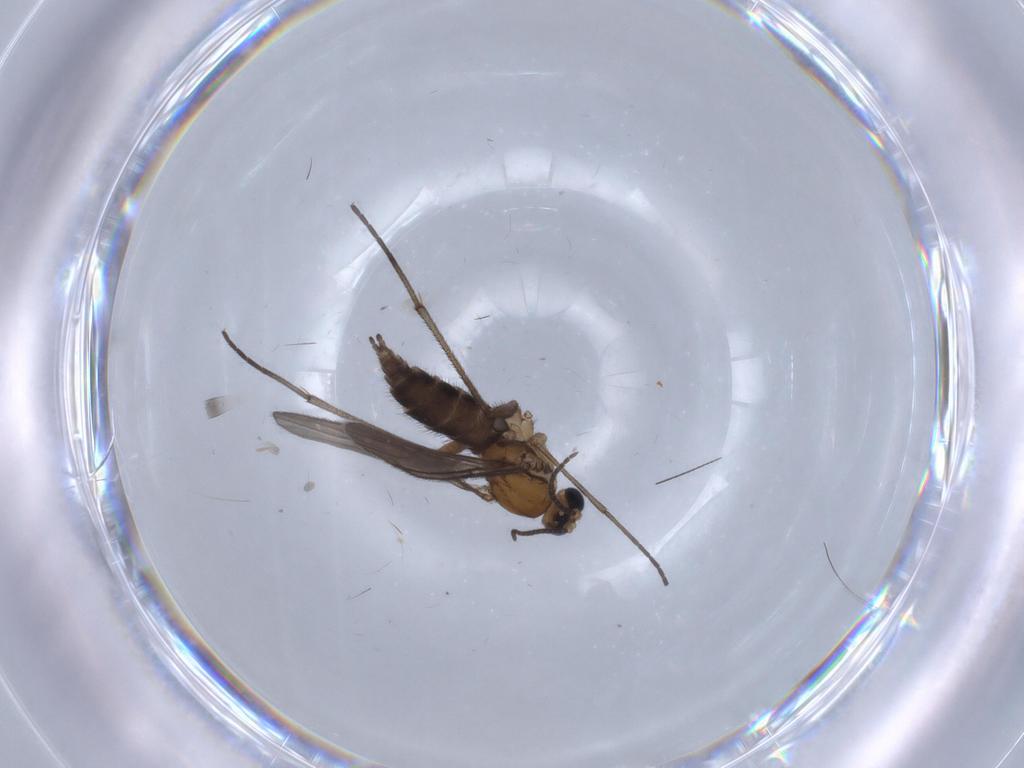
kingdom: Animalia
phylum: Arthropoda
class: Insecta
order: Diptera
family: Sciaridae
